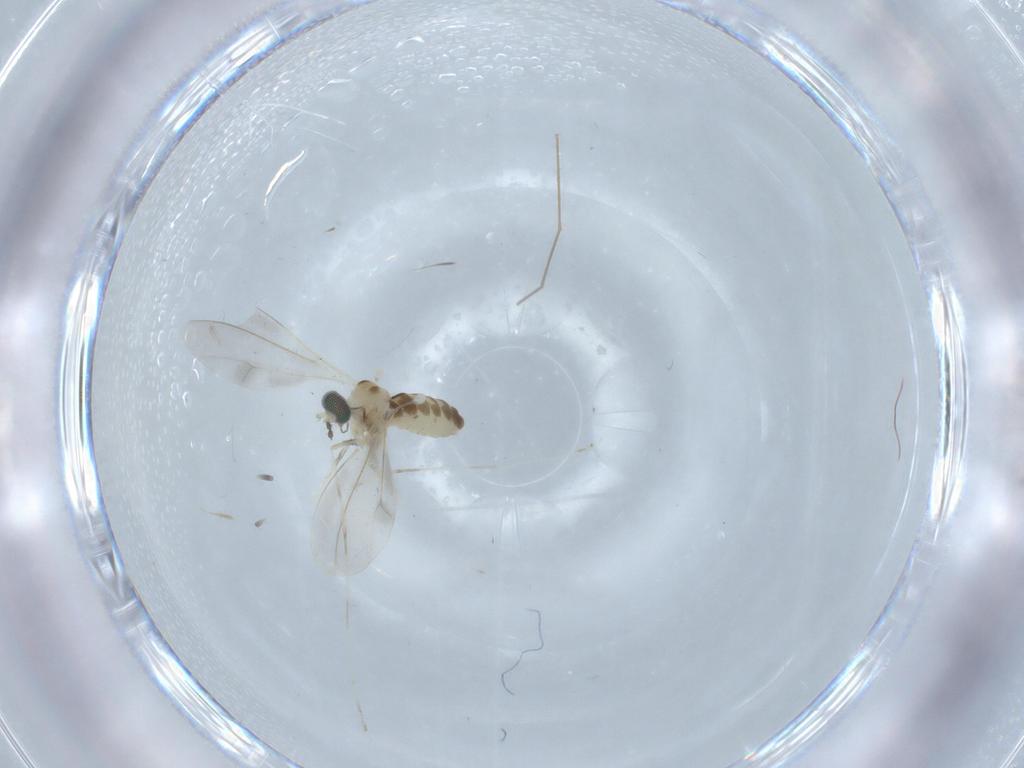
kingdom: Animalia
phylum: Arthropoda
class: Insecta
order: Diptera
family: Cecidomyiidae
